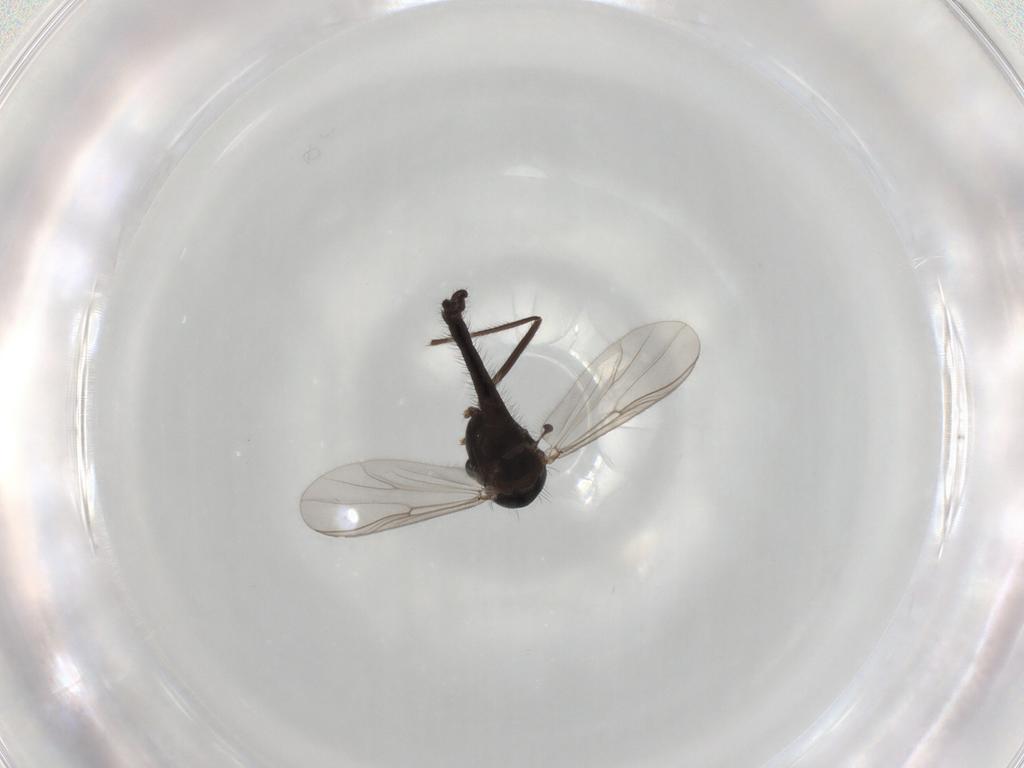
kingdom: Animalia
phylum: Arthropoda
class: Insecta
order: Diptera
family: Chironomidae
